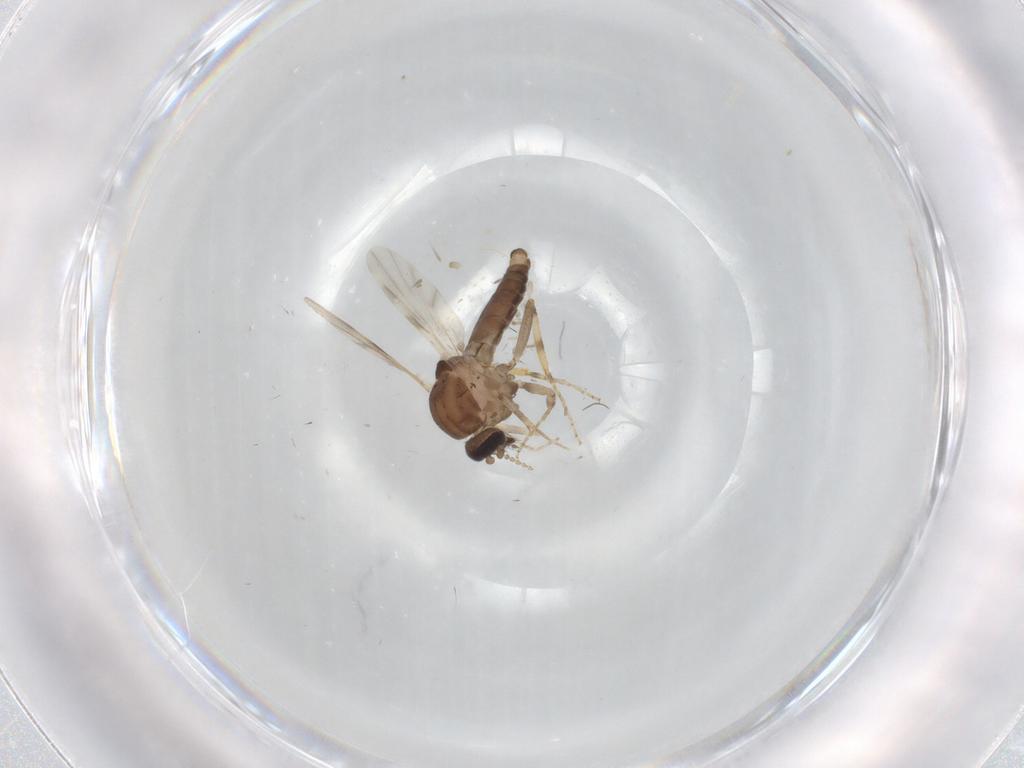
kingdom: Animalia
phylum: Arthropoda
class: Insecta
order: Diptera
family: Ceratopogonidae
